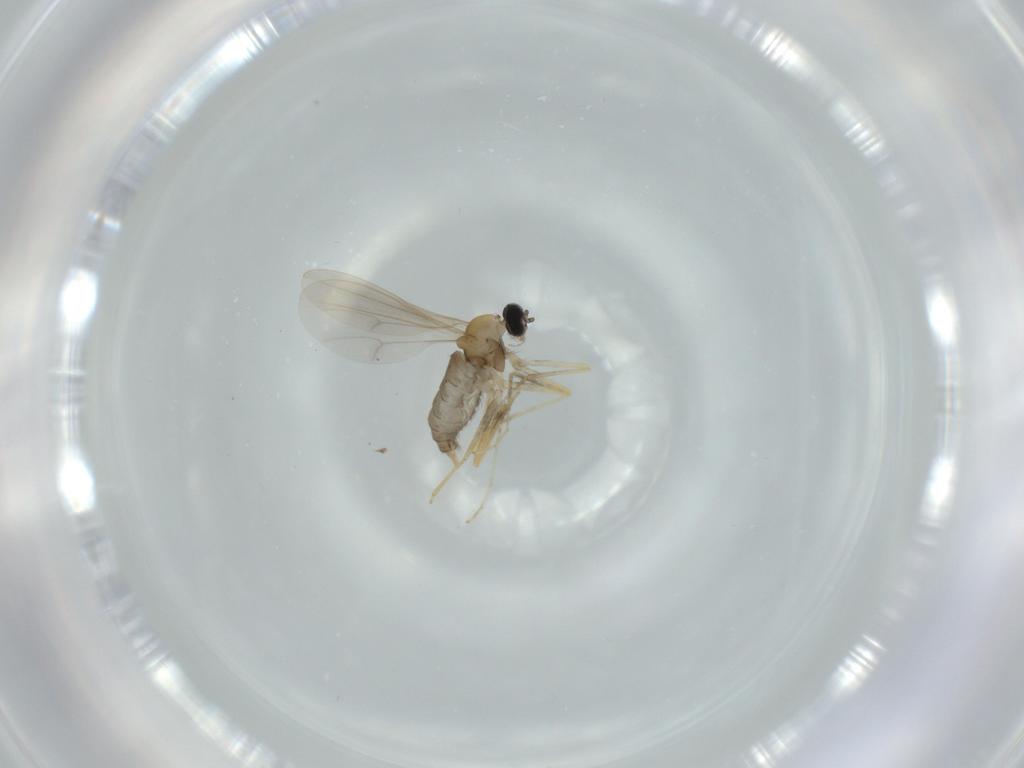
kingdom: Animalia
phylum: Arthropoda
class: Insecta
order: Diptera
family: Cecidomyiidae
